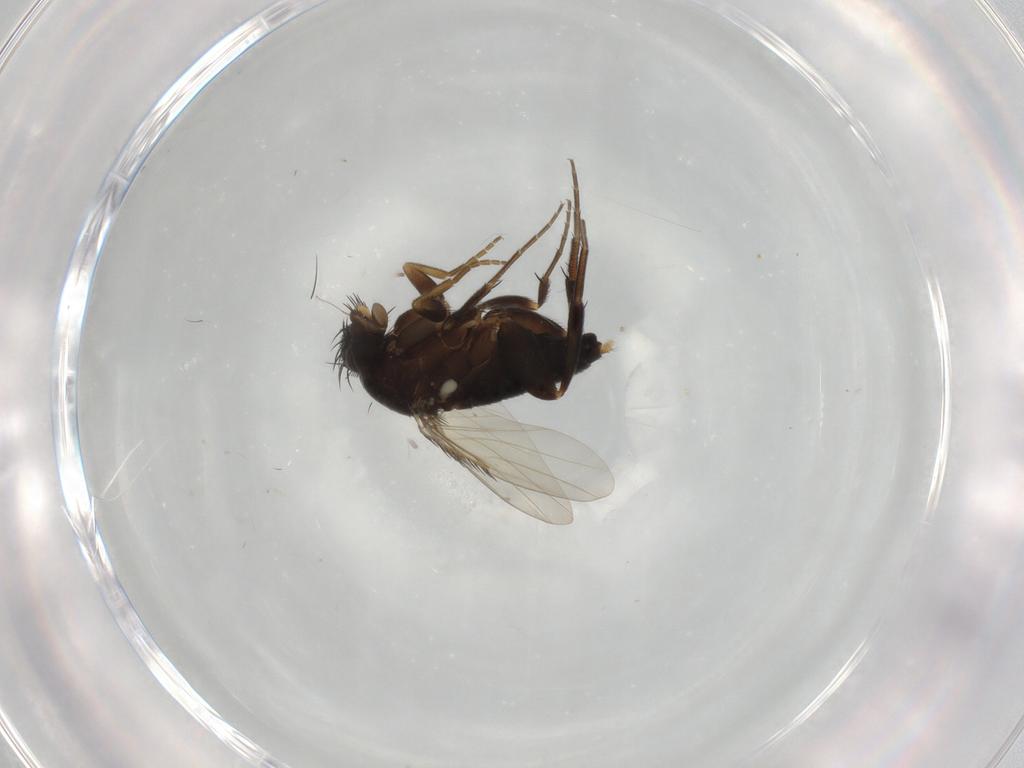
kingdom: Animalia
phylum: Arthropoda
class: Insecta
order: Diptera
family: Phoridae
